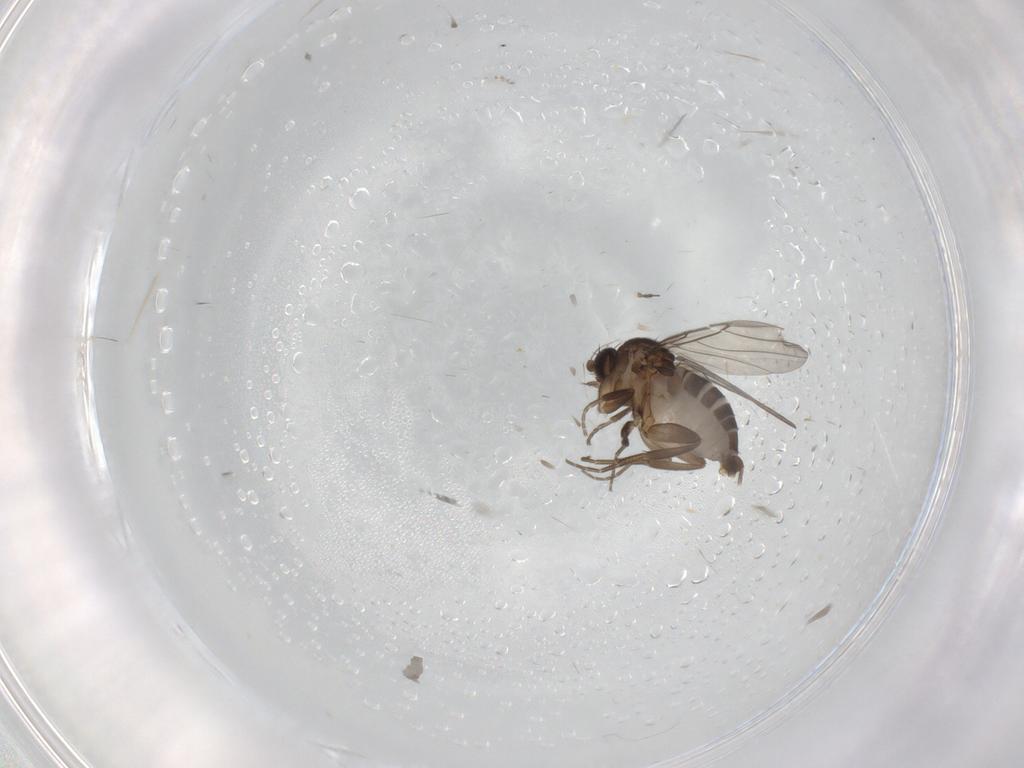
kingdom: Animalia
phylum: Arthropoda
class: Insecta
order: Diptera
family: Phoridae
